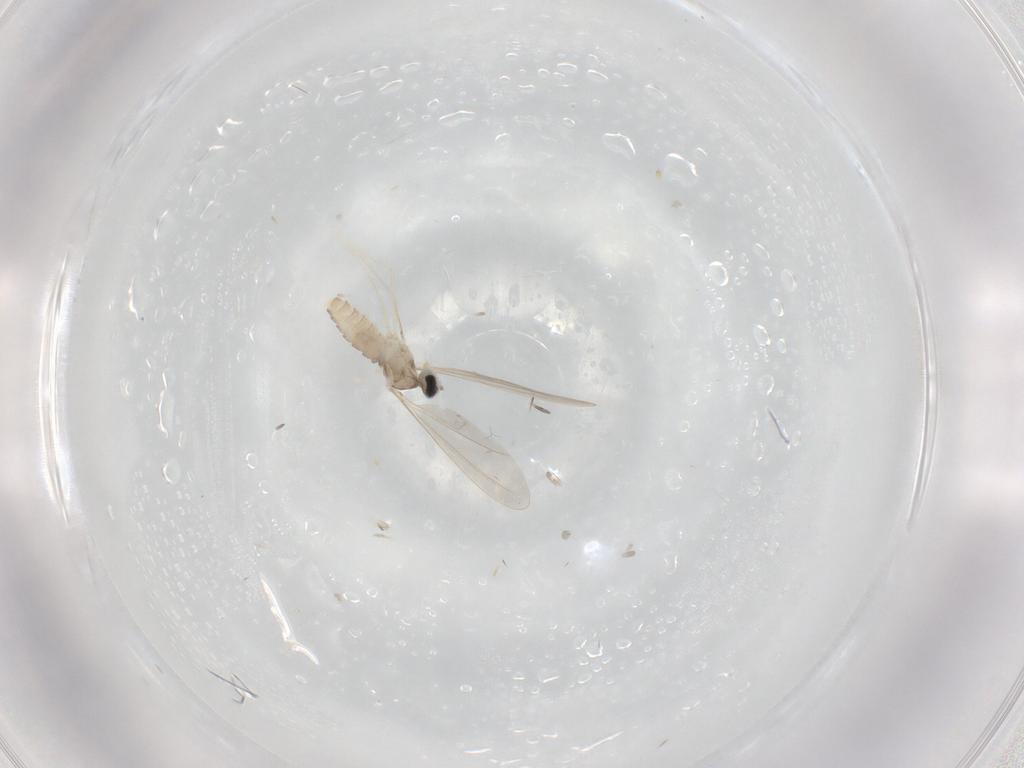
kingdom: Animalia
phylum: Arthropoda
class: Insecta
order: Diptera
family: Cecidomyiidae
